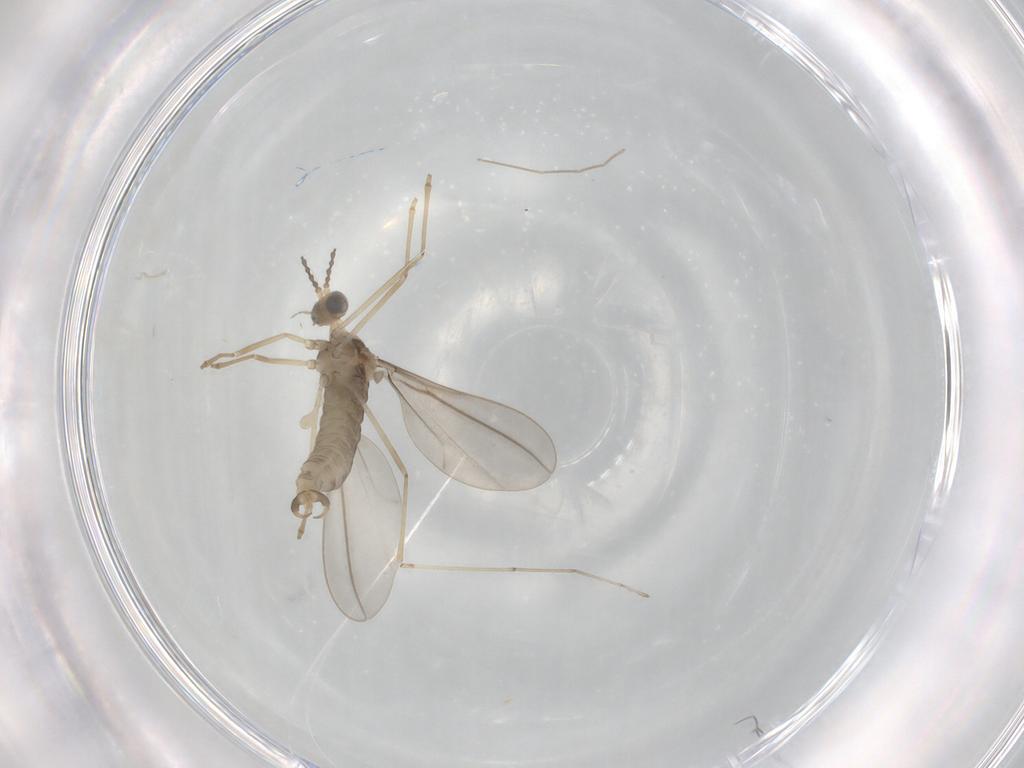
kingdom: Animalia
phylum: Arthropoda
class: Insecta
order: Diptera
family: Cecidomyiidae
